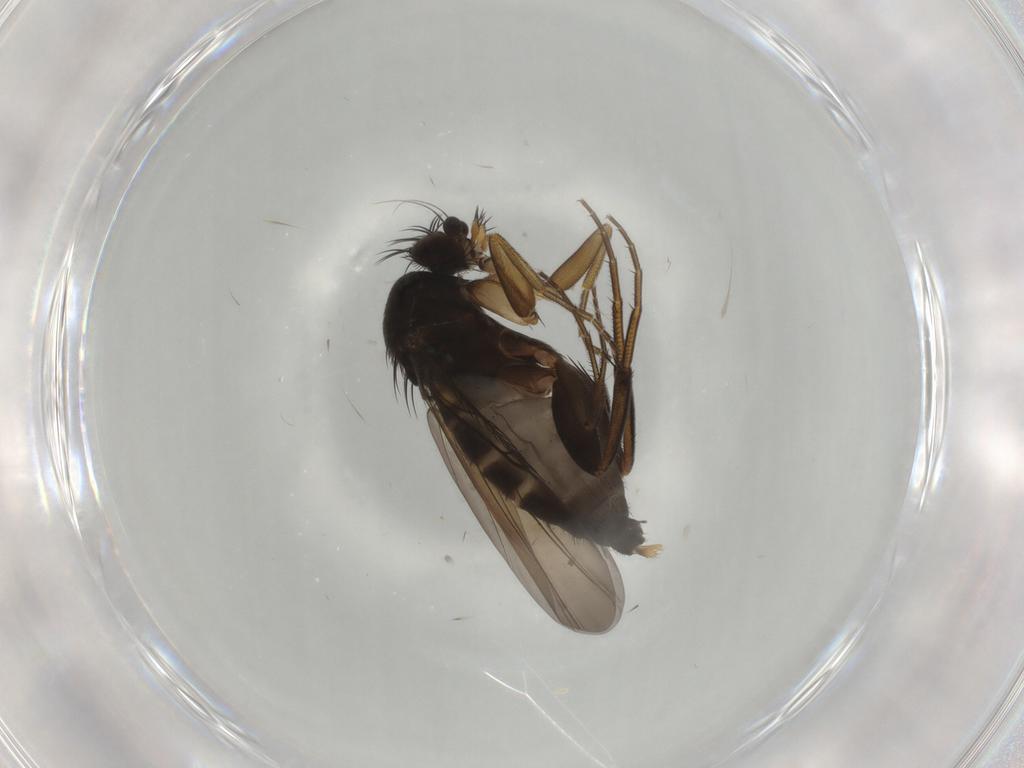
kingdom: Animalia
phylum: Arthropoda
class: Insecta
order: Diptera
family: Phoridae
